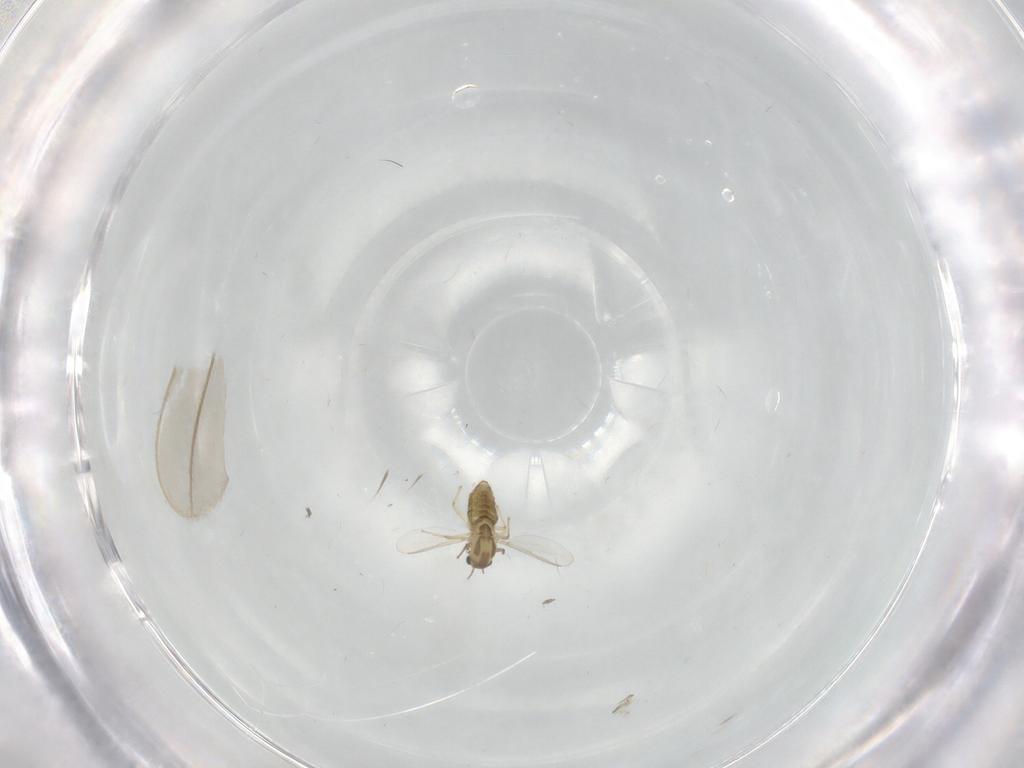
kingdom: Animalia
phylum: Arthropoda
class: Insecta
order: Diptera
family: Chironomidae
